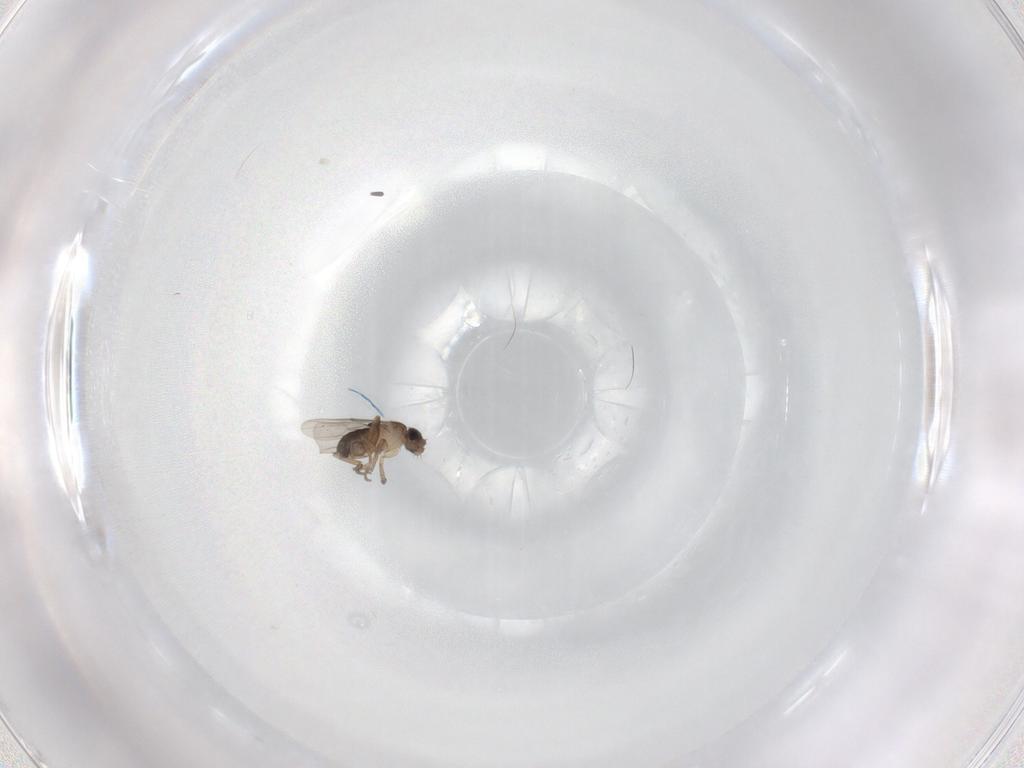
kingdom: Animalia
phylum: Arthropoda
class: Insecta
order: Diptera
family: Phoridae
